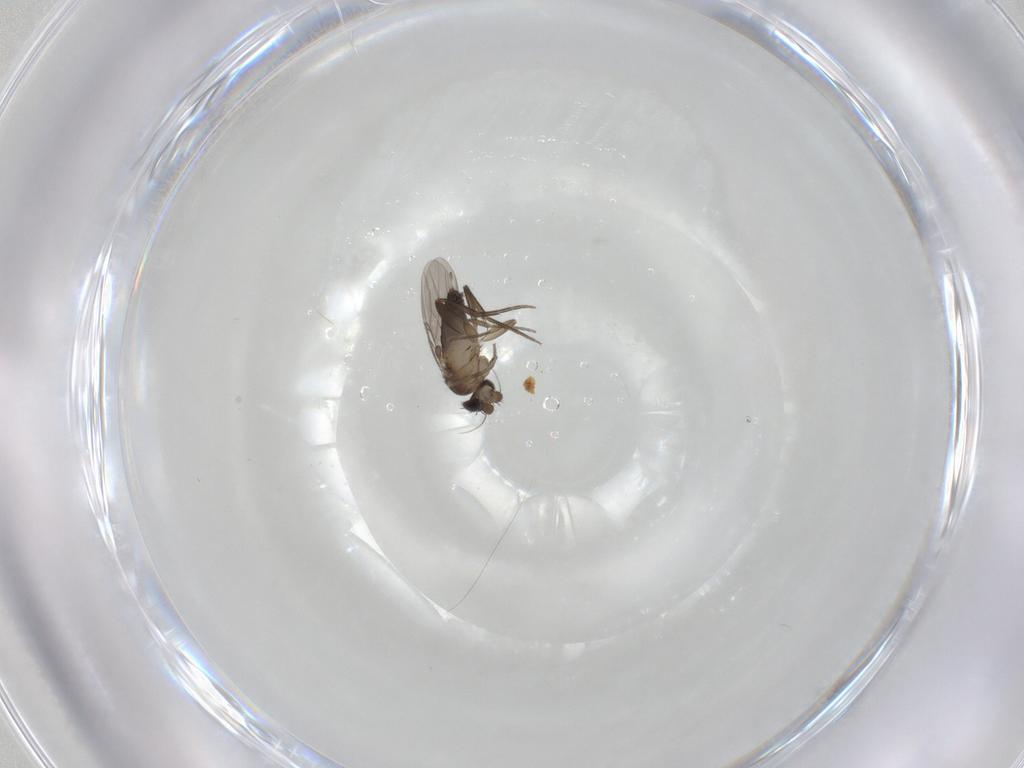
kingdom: Animalia
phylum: Arthropoda
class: Insecta
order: Diptera
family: Phoridae
